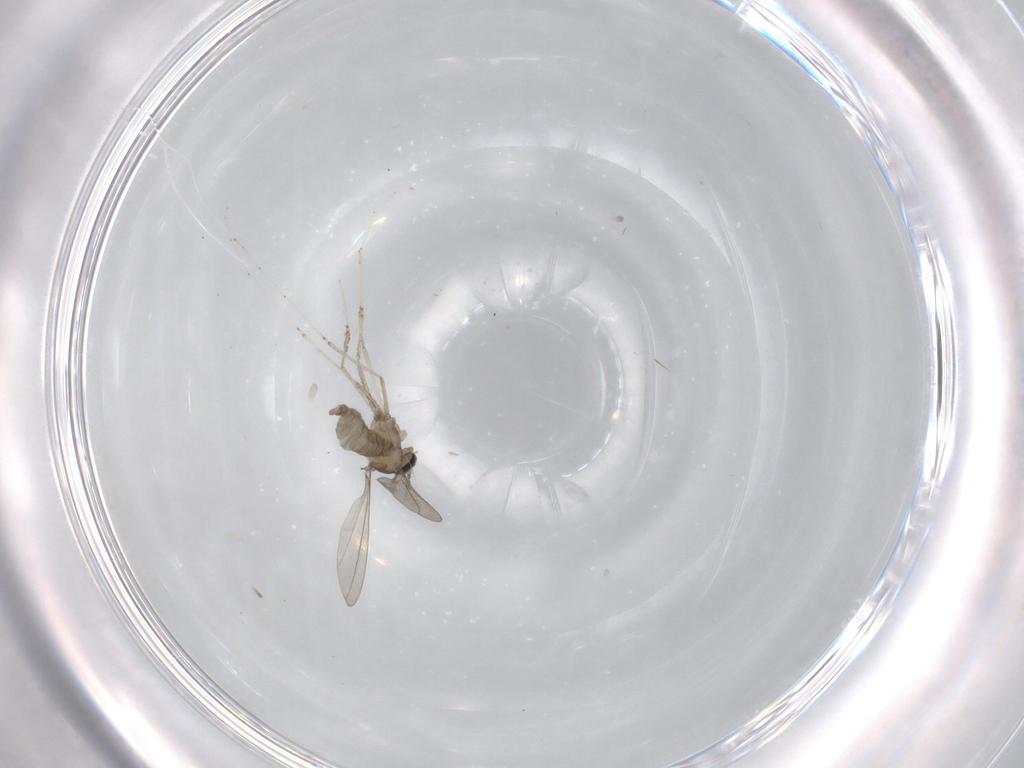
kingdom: Animalia
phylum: Arthropoda
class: Insecta
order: Diptera
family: Cecidomyiidae
